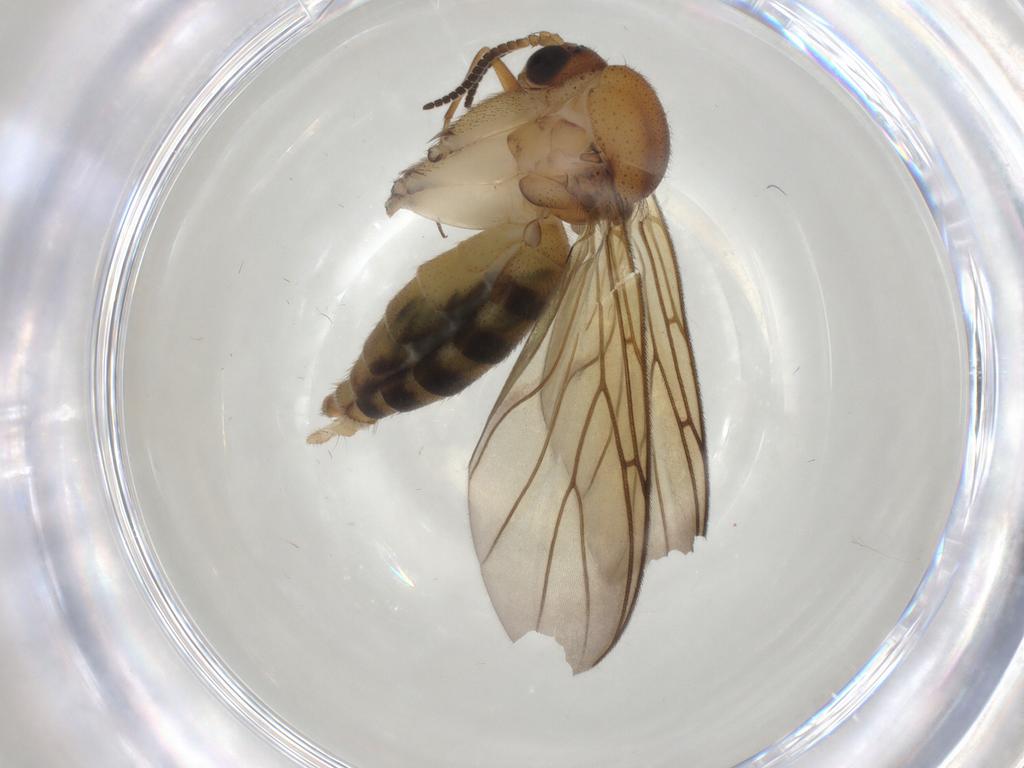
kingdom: Animalia
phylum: Arthropoda
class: Insecta
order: Diptera
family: Mycetophilidae
